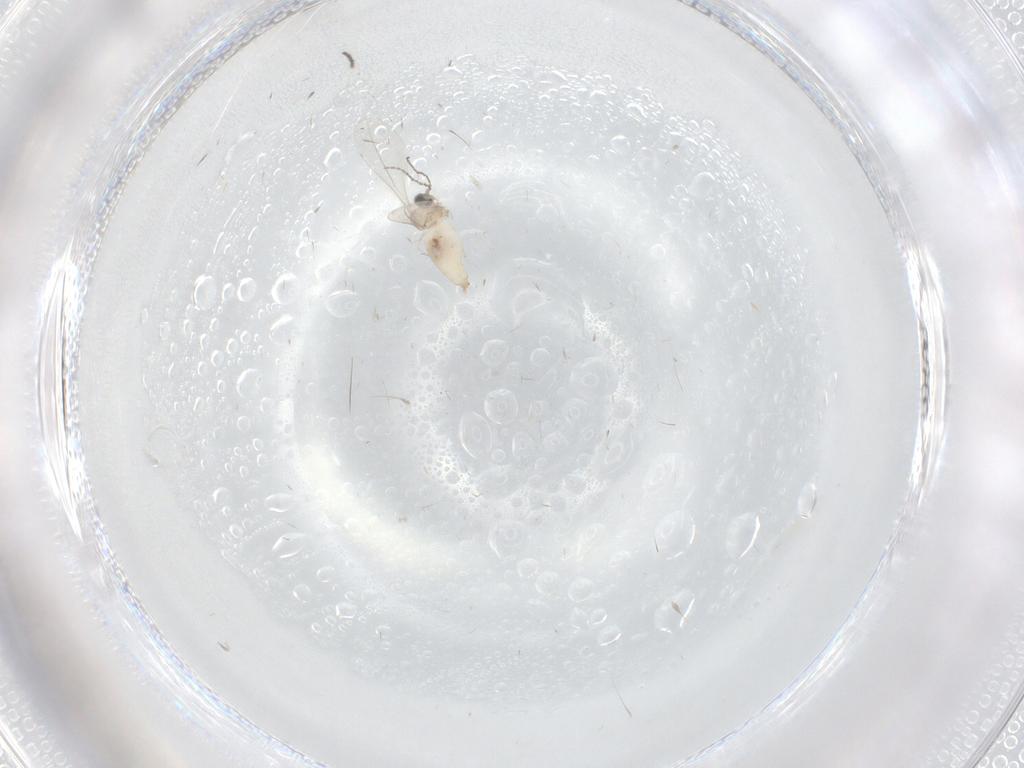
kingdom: Animalia
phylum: Arthropoda
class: Insecta
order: Diptera
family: Cecidomyiidae
